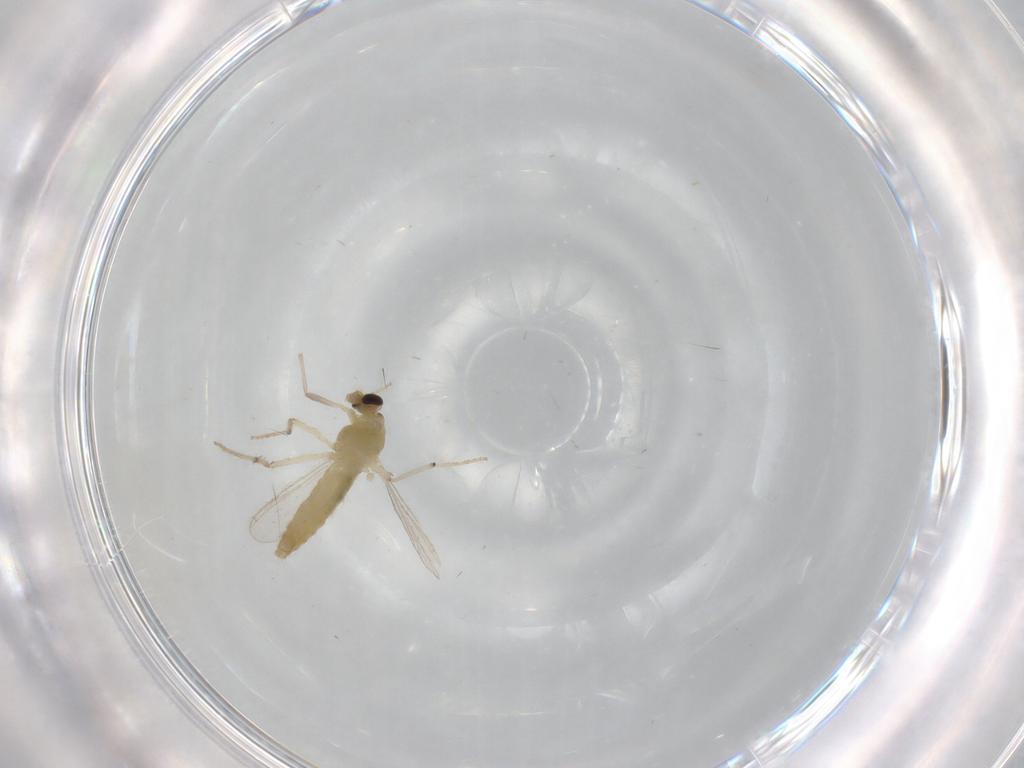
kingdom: Animalia
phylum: Arthropoda
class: Insecta
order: Diptera
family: Chironomidae
